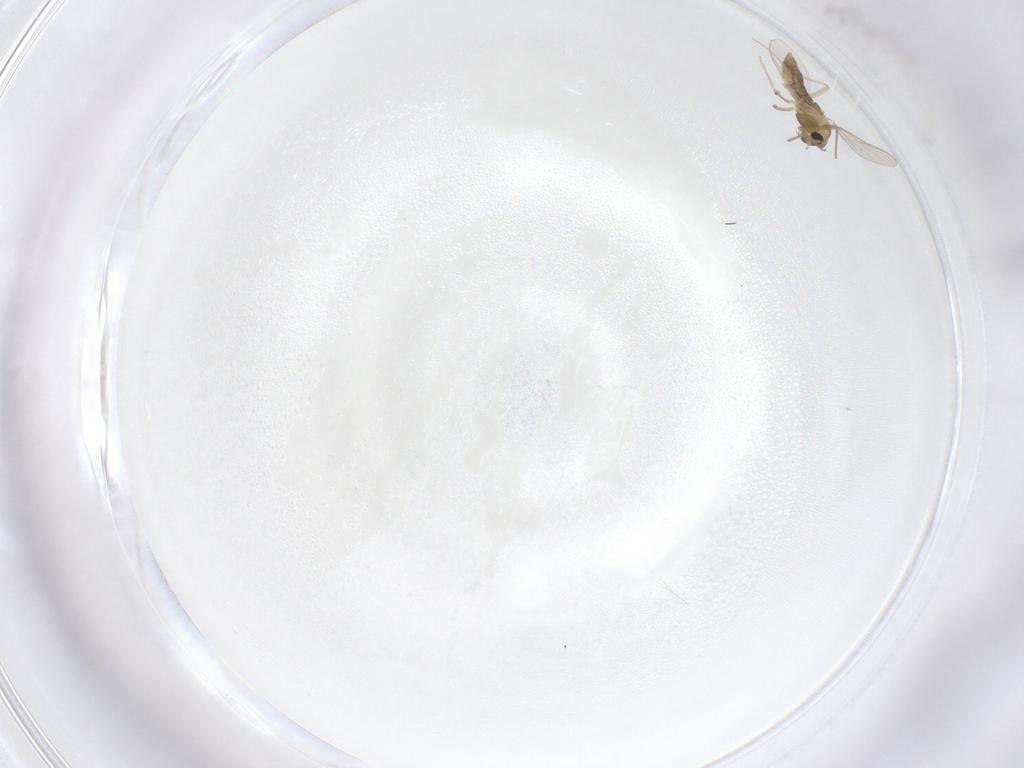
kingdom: Animalia
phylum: Arthropoda
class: Insecta
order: Diptera
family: Chironomidae
